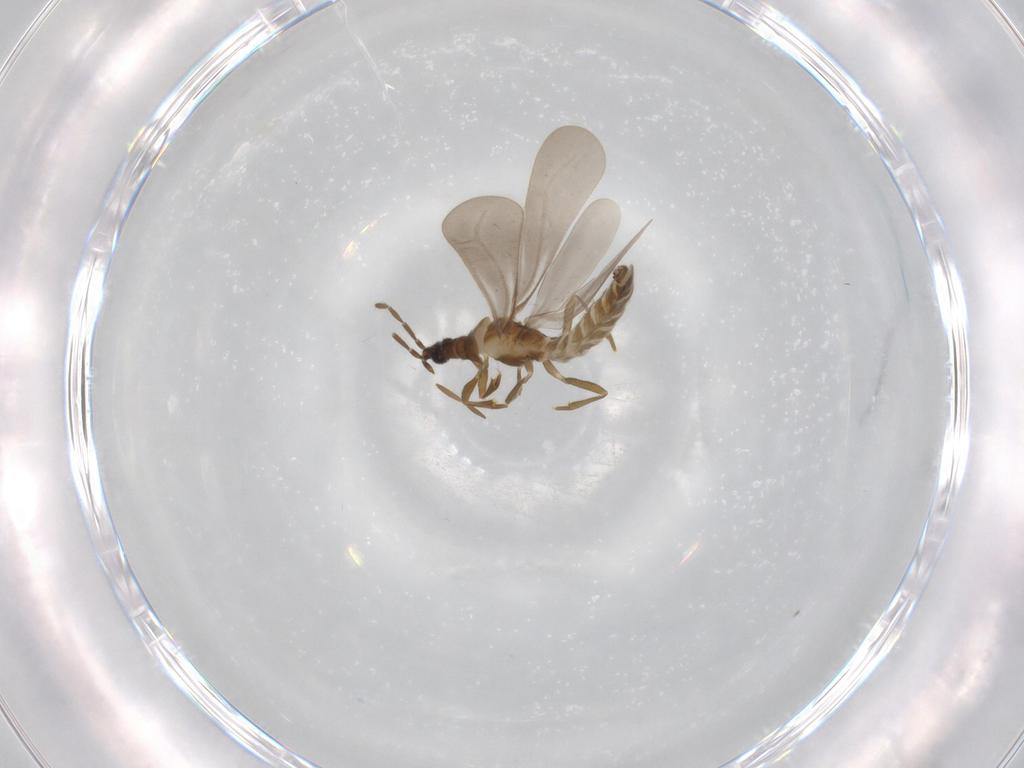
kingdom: Animalia
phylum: Arthropoda
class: Insecta
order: Hemiptera
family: Enicocephalidae
